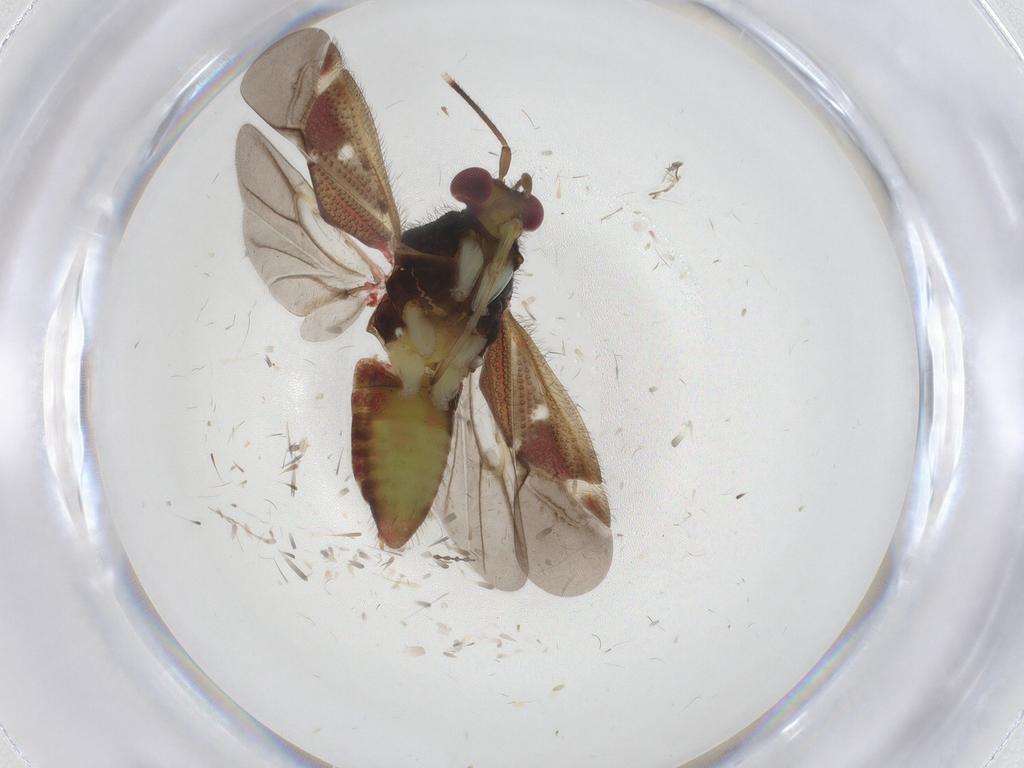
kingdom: Animalia
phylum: Arthropoda
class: Insecta
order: Hemiptera
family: Miridae
